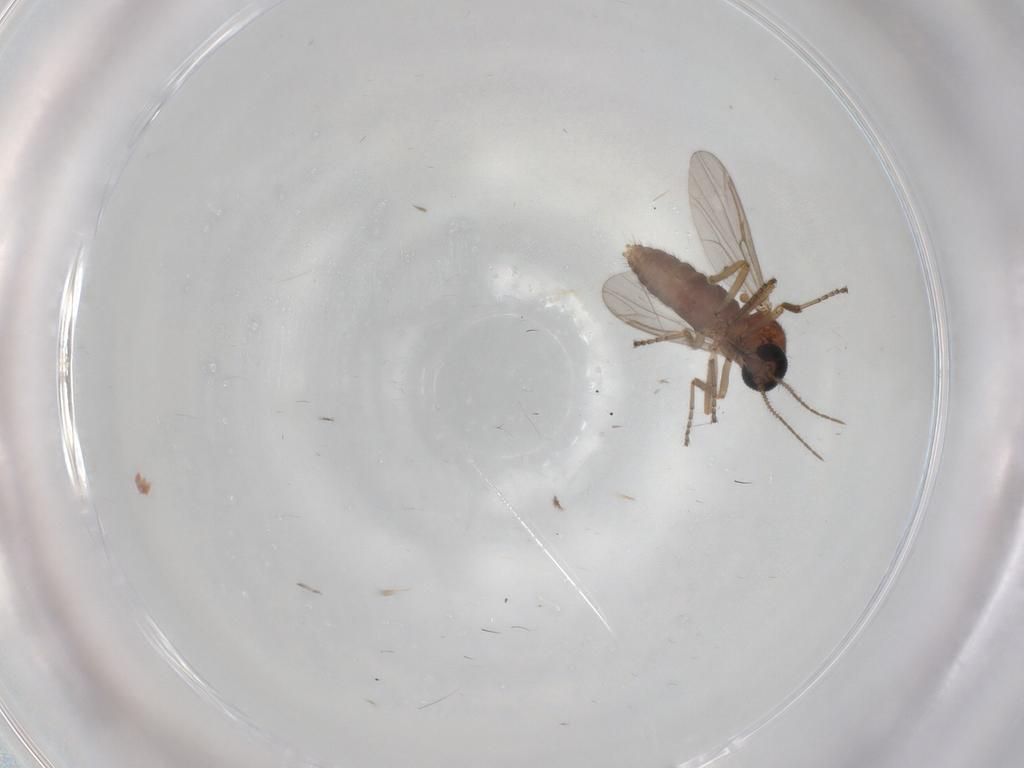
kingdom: Animalia
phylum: Arthropoda
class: Insecta
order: Diptera
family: Ceratopogonidae
